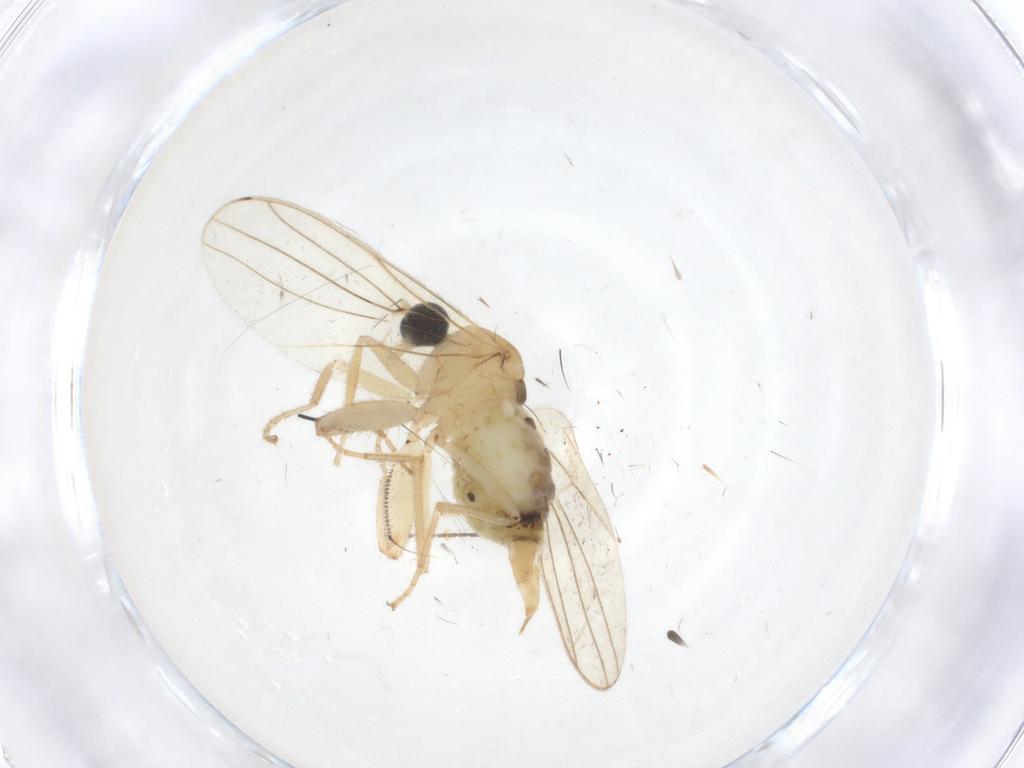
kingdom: Animalia
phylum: Arthropoda
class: Insecta
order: Diptera
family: Hybotidae
